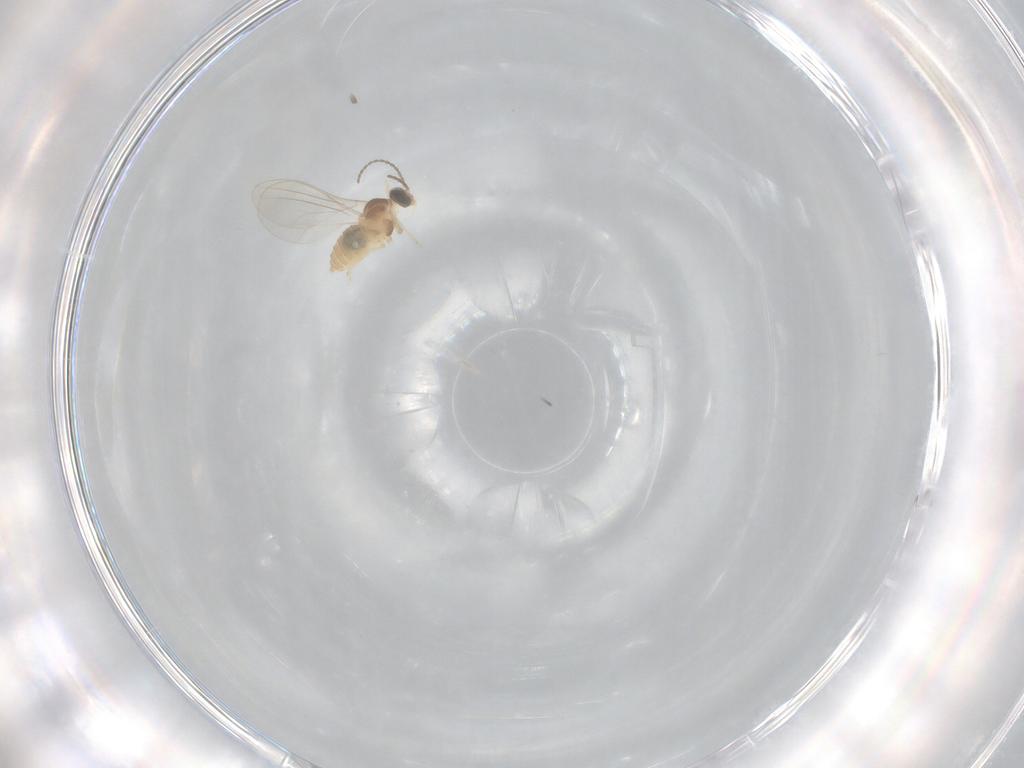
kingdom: Animalia
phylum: Arthropoda
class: Insecta
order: Diptera
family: Cecidomyiidae
